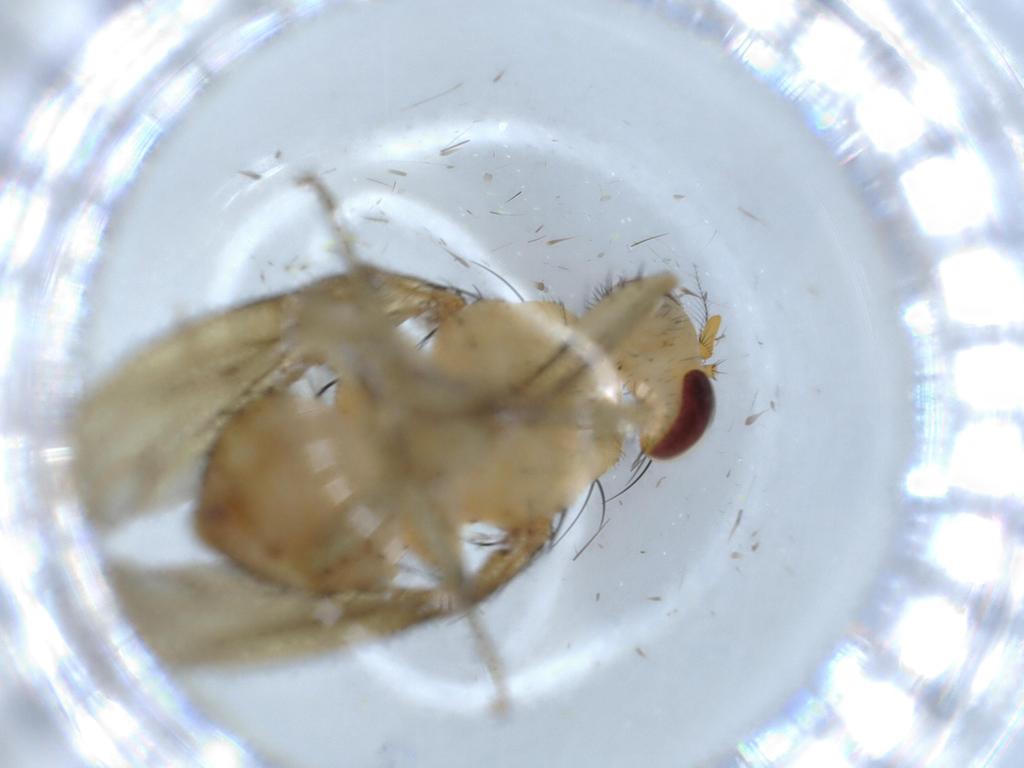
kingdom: Animalia
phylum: Arthropoda
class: Insecta
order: Diptera
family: Chironomidae
